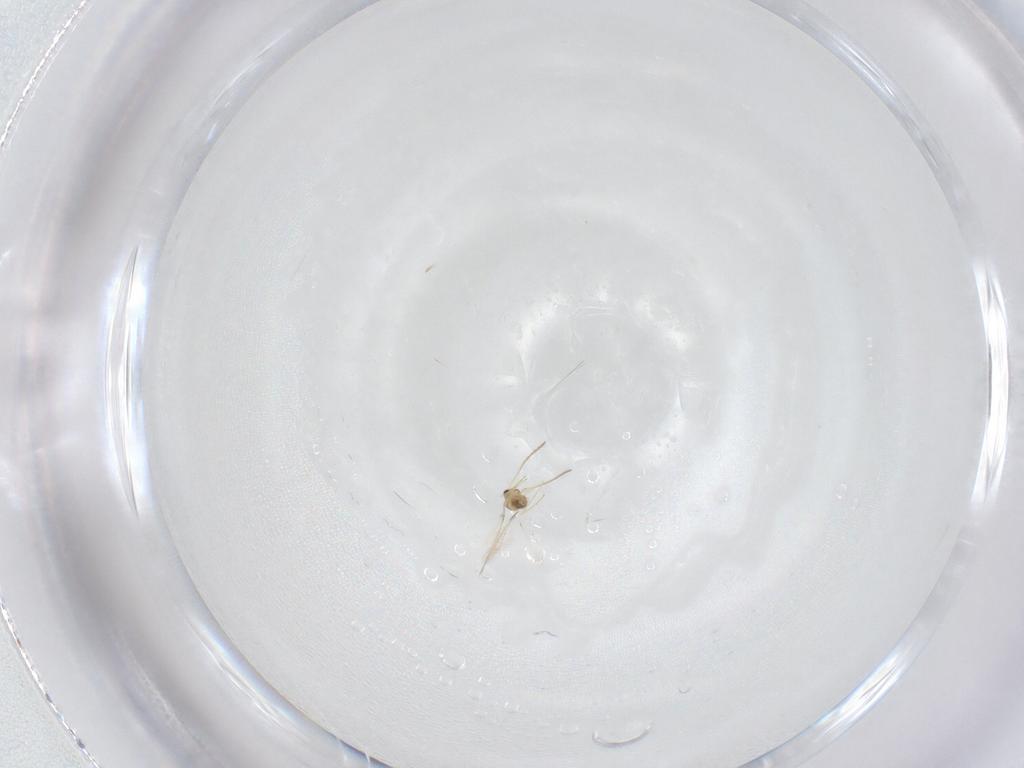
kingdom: Animalia
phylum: Arthropoda
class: Insecta
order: Hymenoptera
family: Mymaridae
